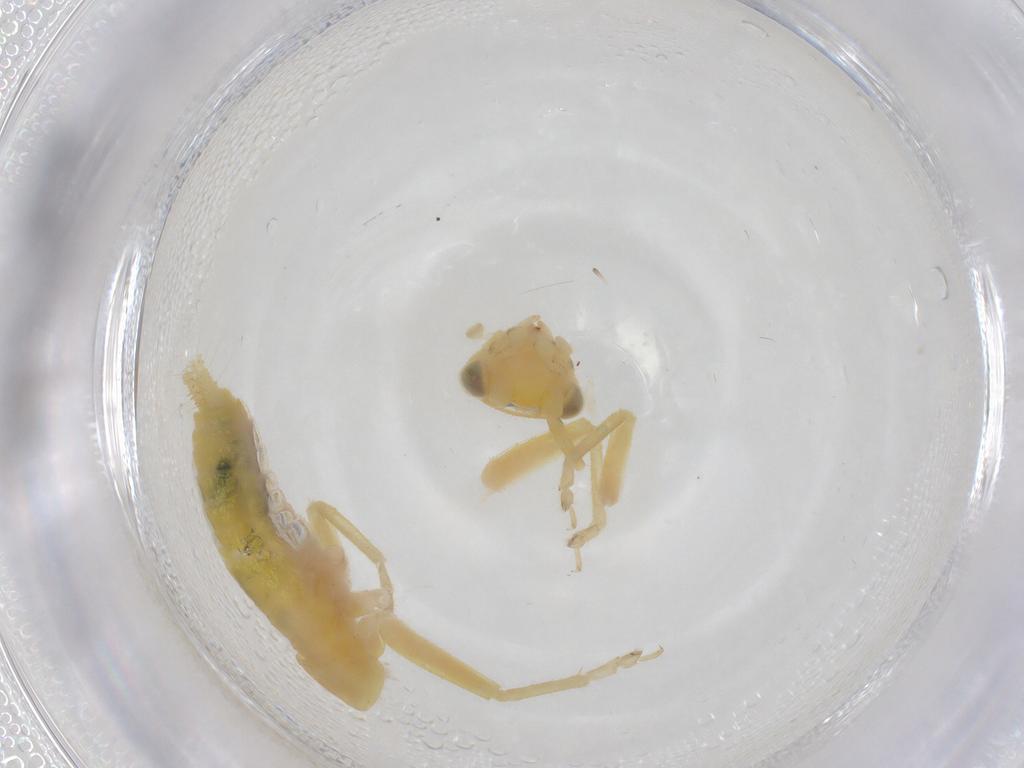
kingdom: Animalia
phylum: Arthropoda
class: Insecta
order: Orthoptera
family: Trigonidiidae
